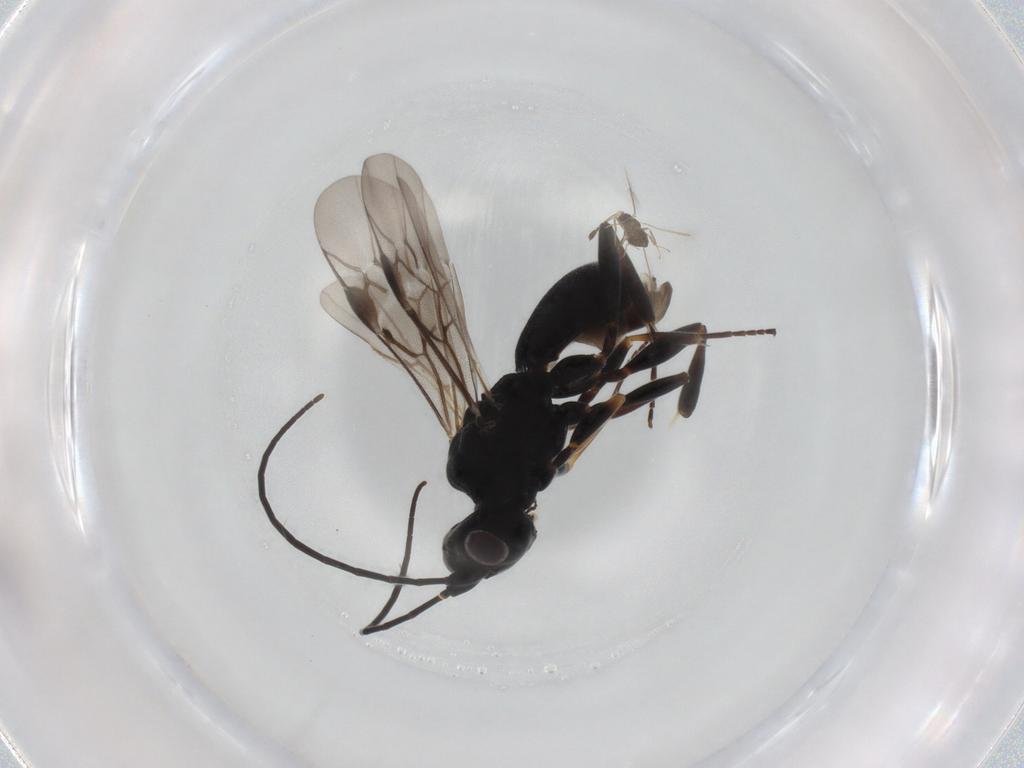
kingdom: Animalia
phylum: Arthropoda
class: Insecta
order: Hymenoptera
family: Braconidae
